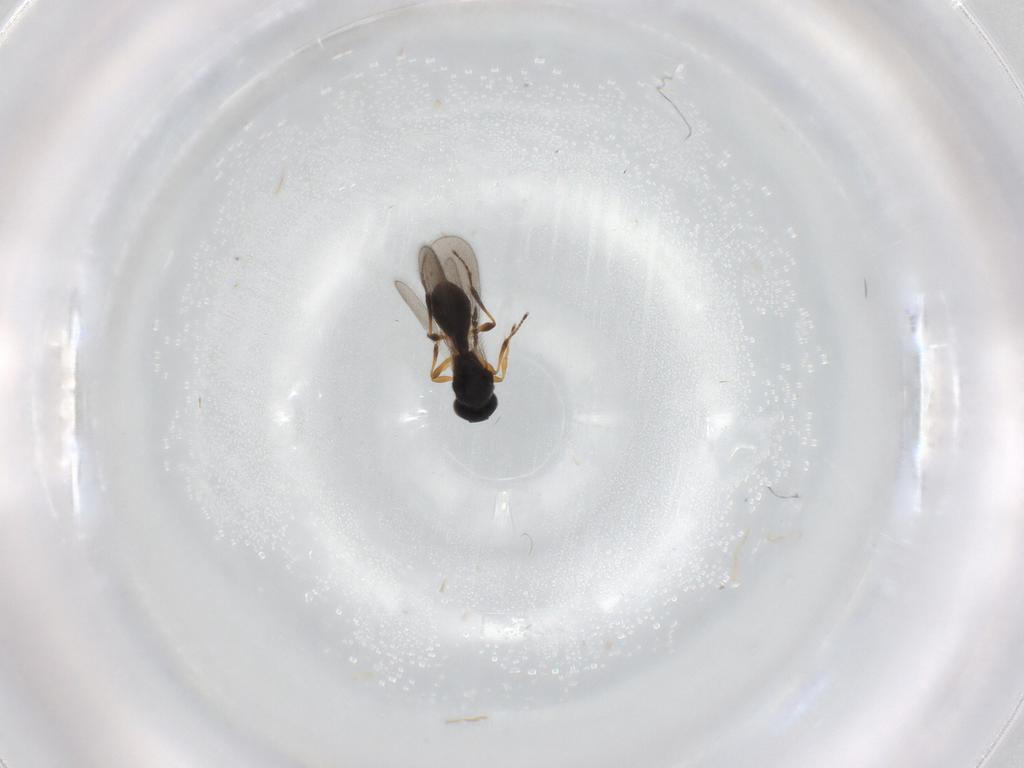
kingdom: Animalia
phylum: Arthropoda
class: Insecta
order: Hymenoptera
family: Platygastridae
